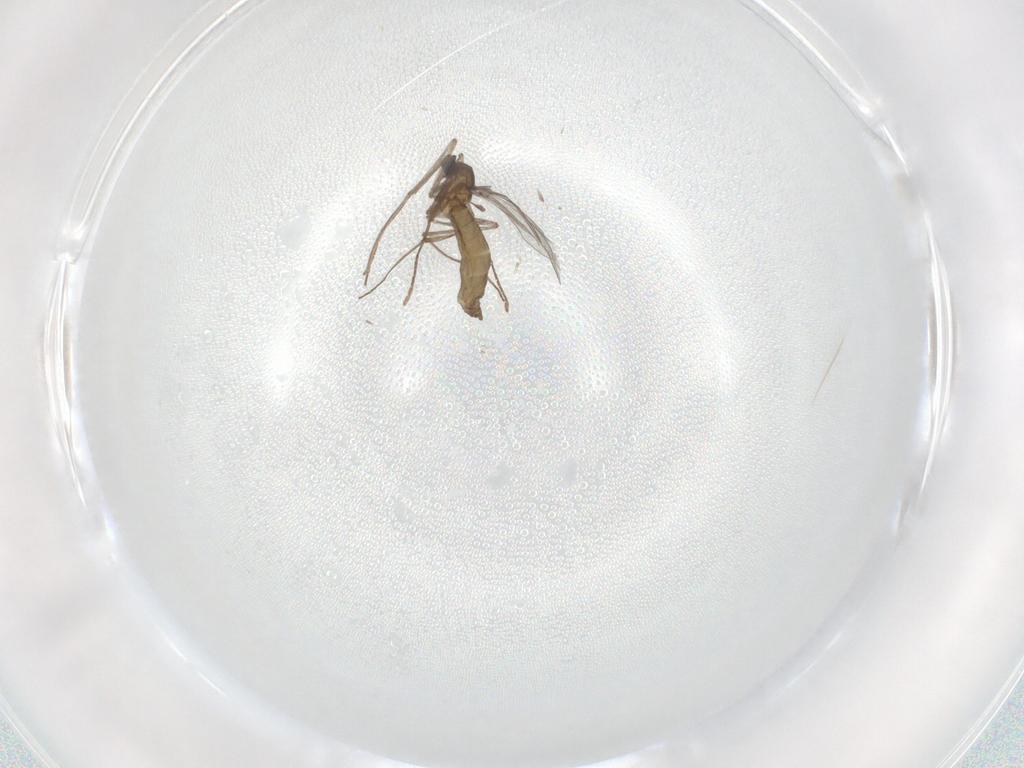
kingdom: Animalia
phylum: Arthropoda
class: Insecta
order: Diptera
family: Cecidomyiidae
